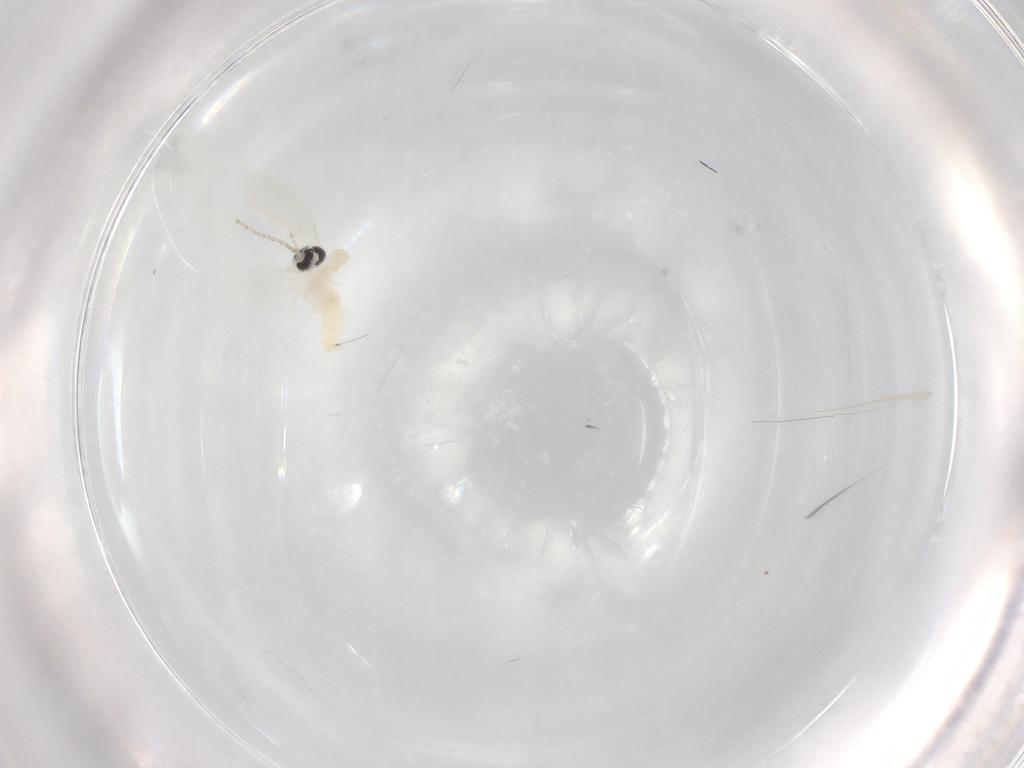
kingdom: Animalia
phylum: Arthropoda
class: Insecta
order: Diptera
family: Cecidomyiidae
